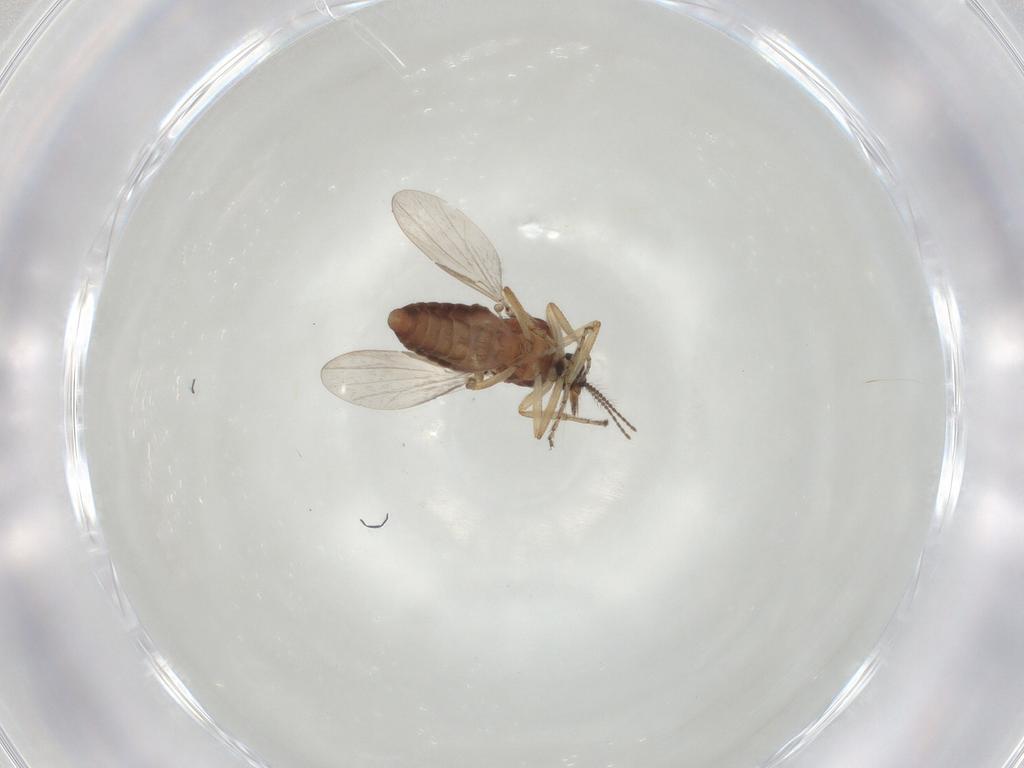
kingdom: Animalia
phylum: Arthropoda
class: Insecta
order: Diptera
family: Ceratopogonidae
